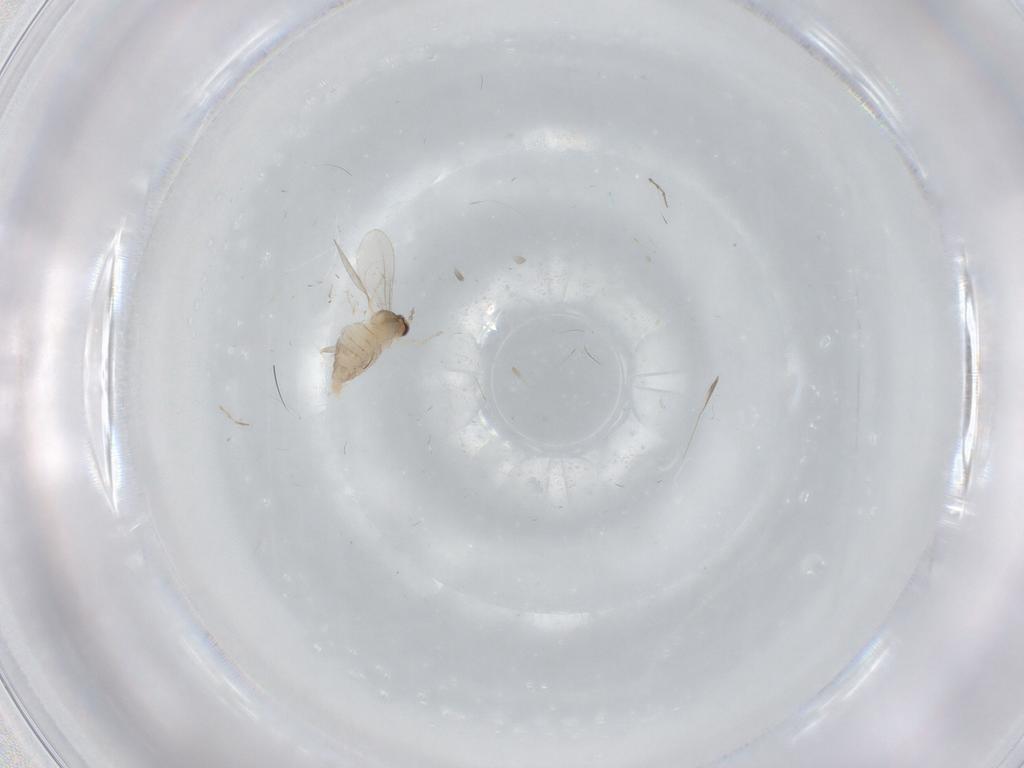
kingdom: Animalia
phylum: Arthropoda
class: Insecta
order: Diptera
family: Cecidomyiidae
